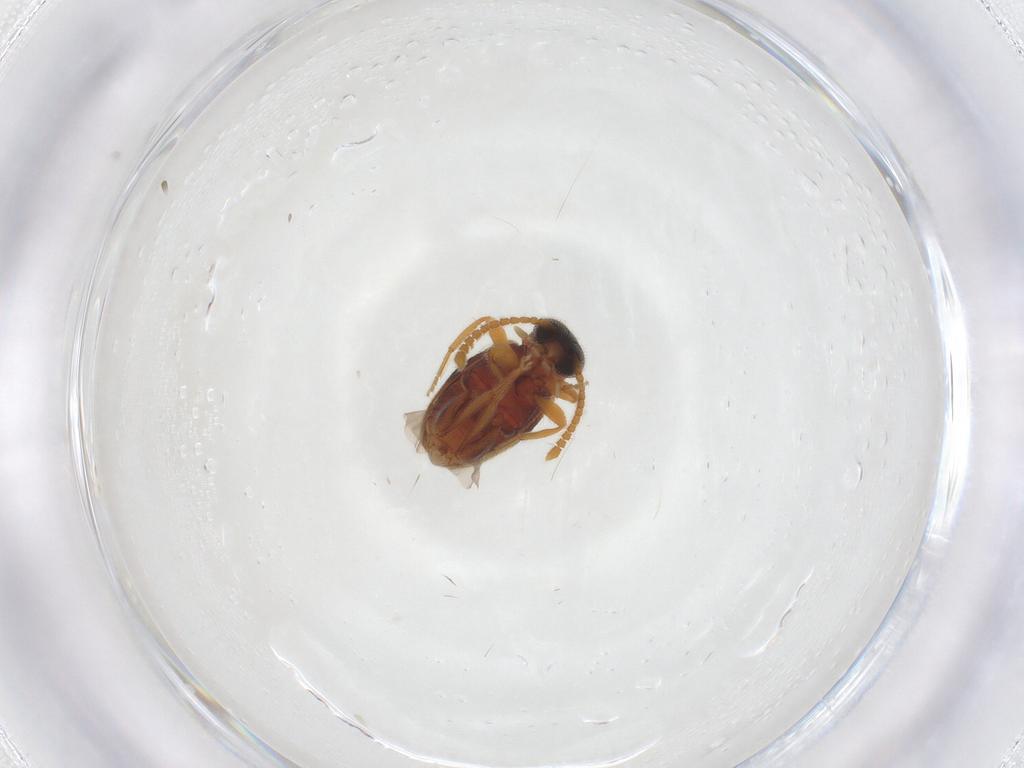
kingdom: Animalia
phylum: Arthropoda
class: Insecta
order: Coleoptera
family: Aderidae
